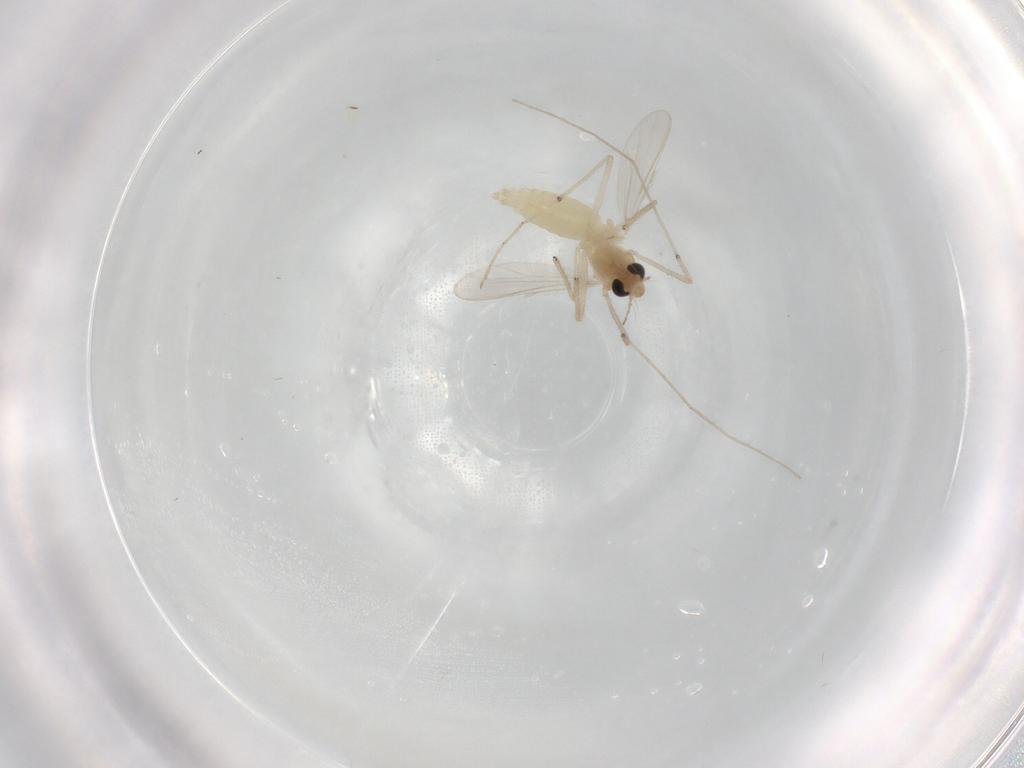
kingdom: Animalia
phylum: Arthropoda
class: Insecta
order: Diptera
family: Chironomidae
